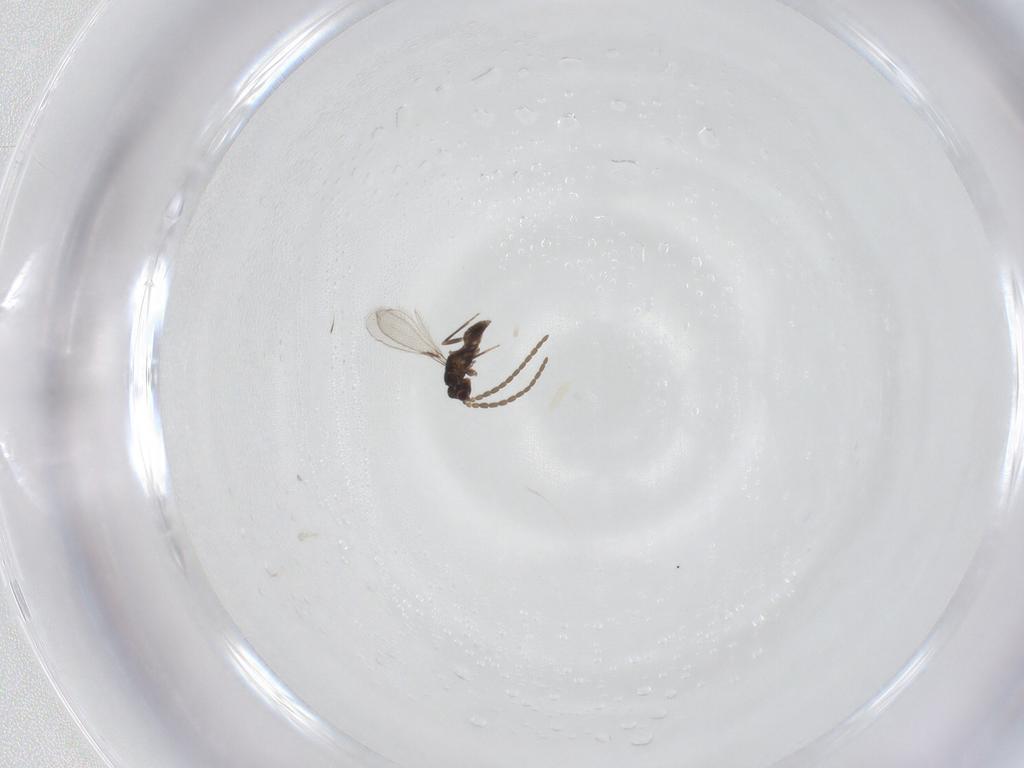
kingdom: Animalia
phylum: Arthropoda
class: Insecta
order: Hymenoptera
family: Mymaridae
